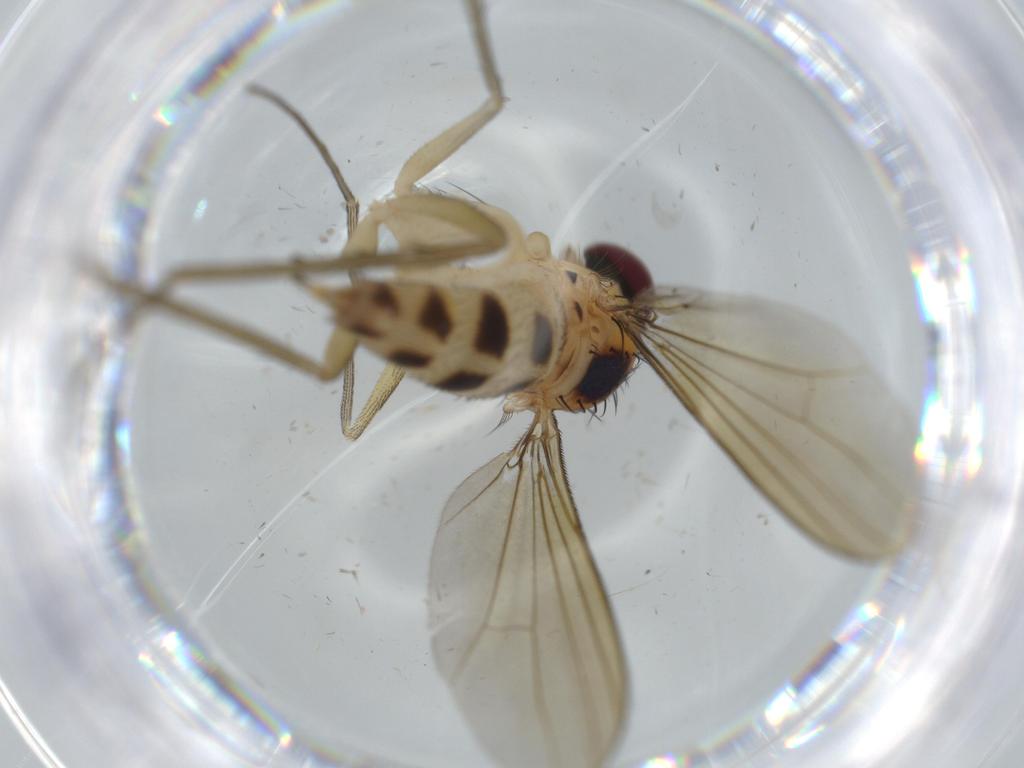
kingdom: Animalia
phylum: Arthropoda
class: Insecta
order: Diptera
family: Dolichopodidae
